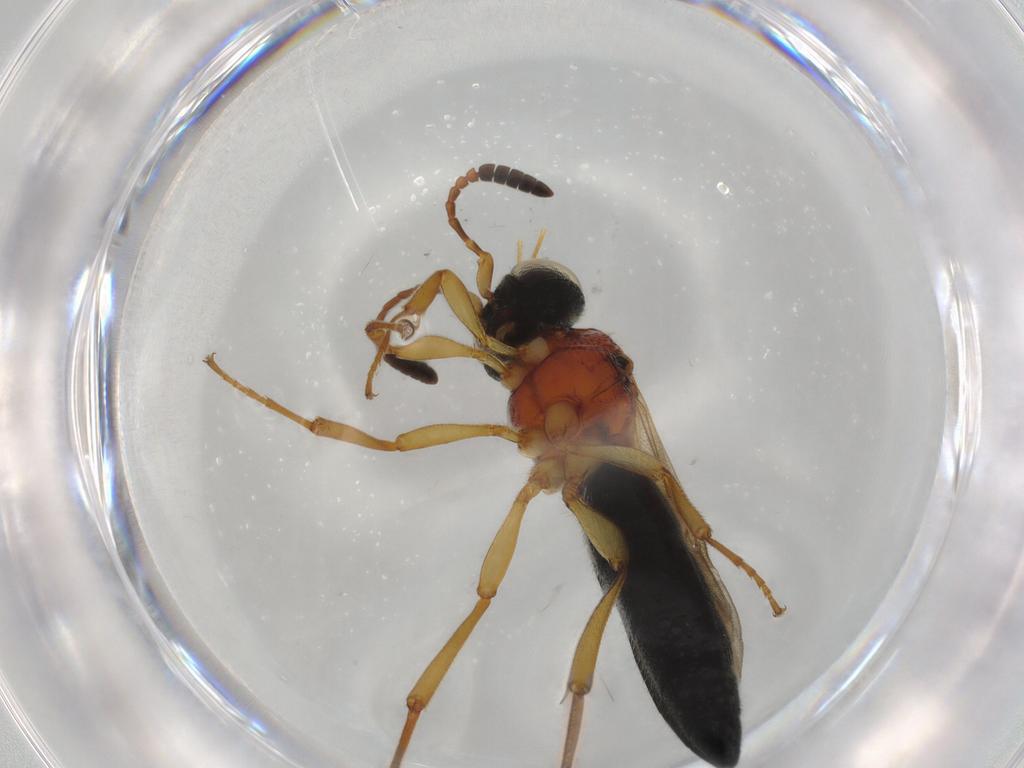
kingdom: Animalia
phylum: Arthropoda
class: Insecta
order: Hymenoptera
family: Scelionidae
